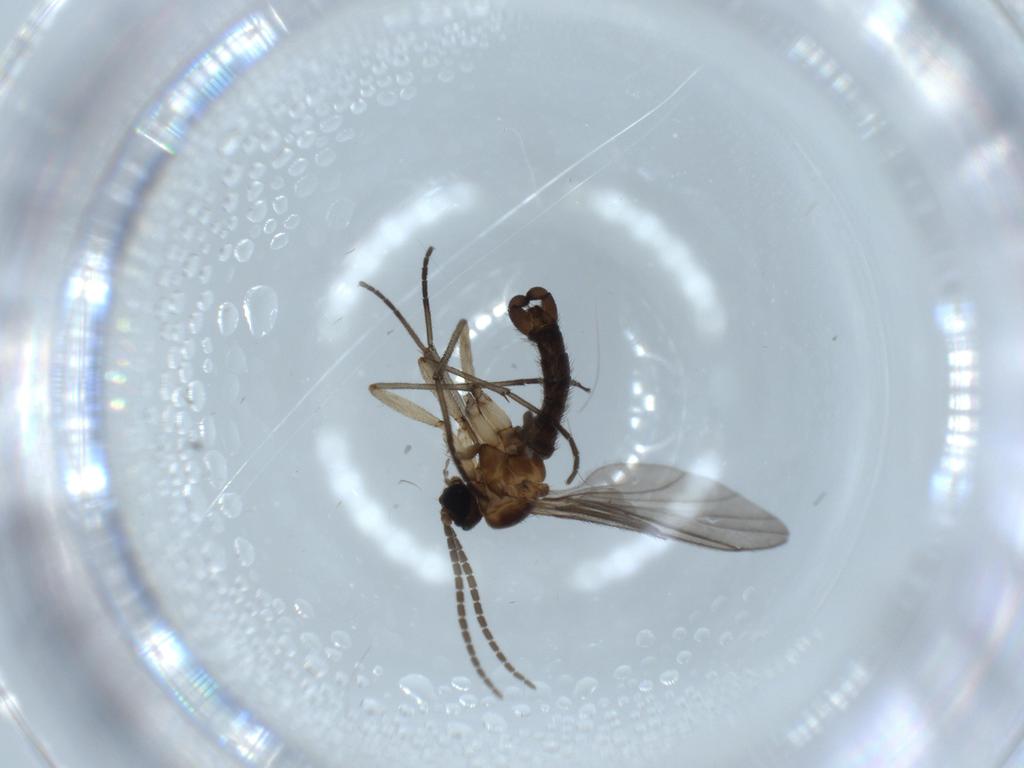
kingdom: Animalia
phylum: Arthropoda
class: Insecta
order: Diptera
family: Sciaridae
